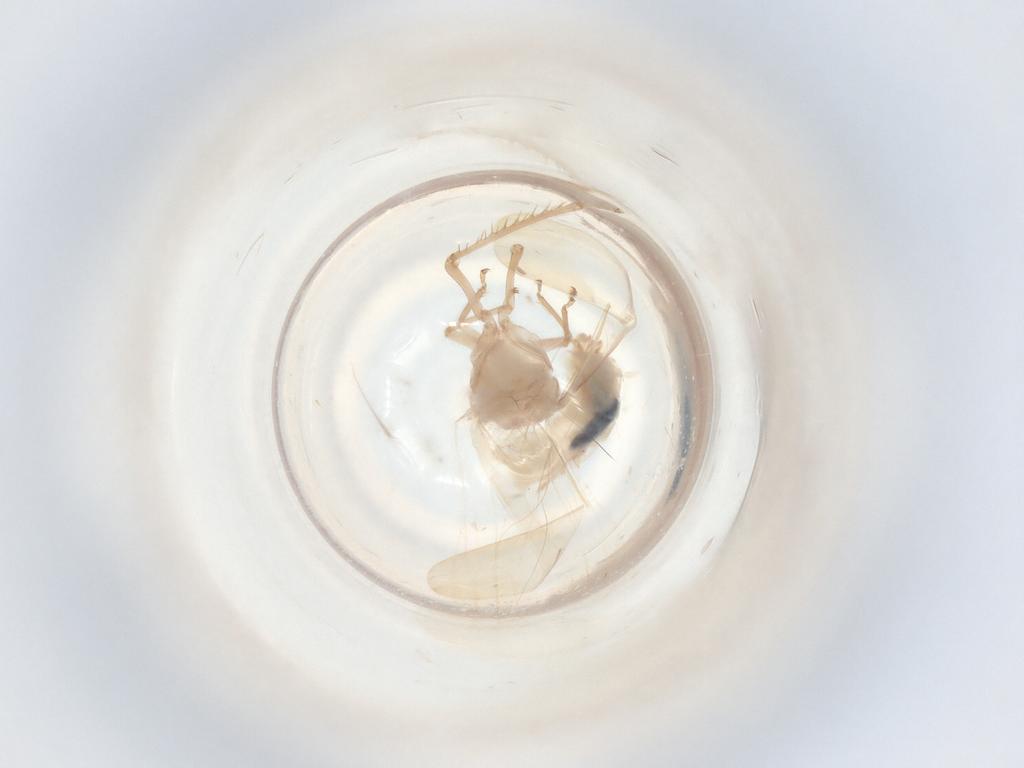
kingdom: Animalia
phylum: Arthropoda
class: Insecta
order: Hemiptera
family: Cicadellidae
